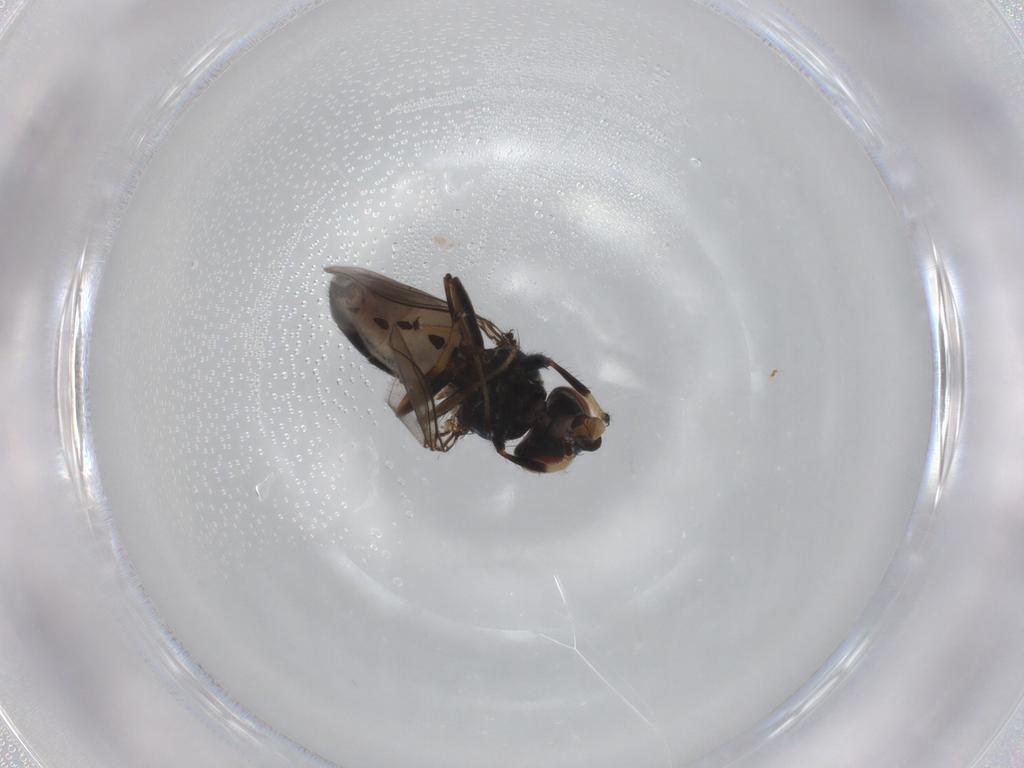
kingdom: Animalia
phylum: Arthropoda
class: Insecta
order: Diptera
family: Ephydridae
